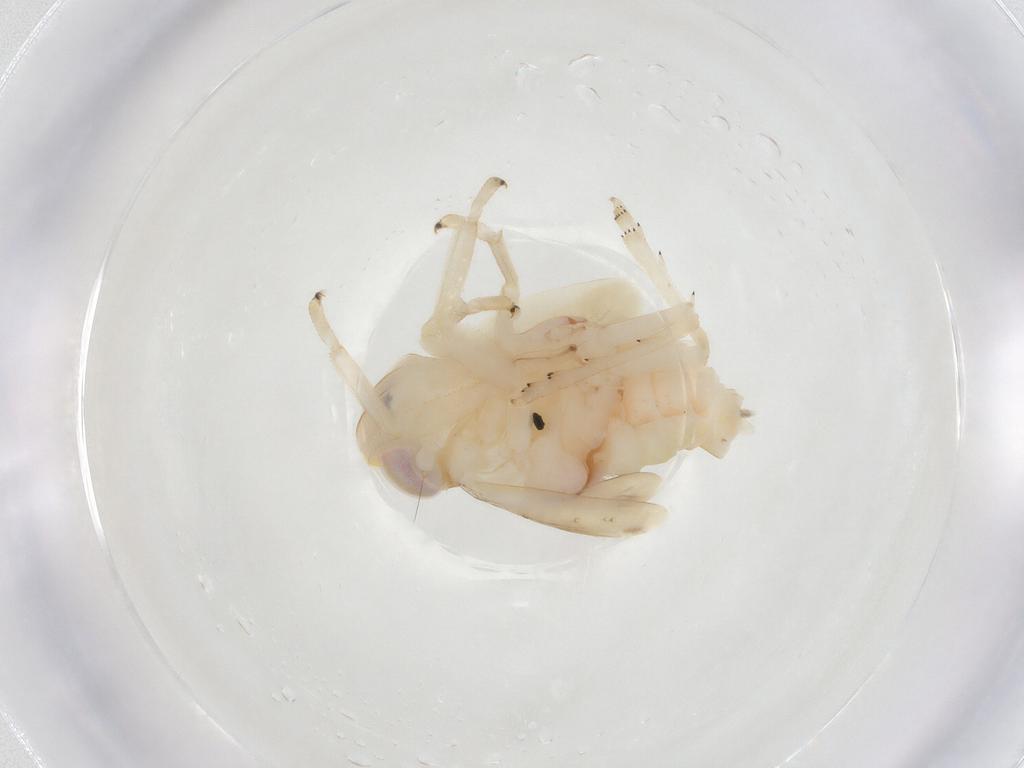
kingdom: Animalia
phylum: Arthropoda
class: Insecta
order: Hemiptera
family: Nogodinidae
